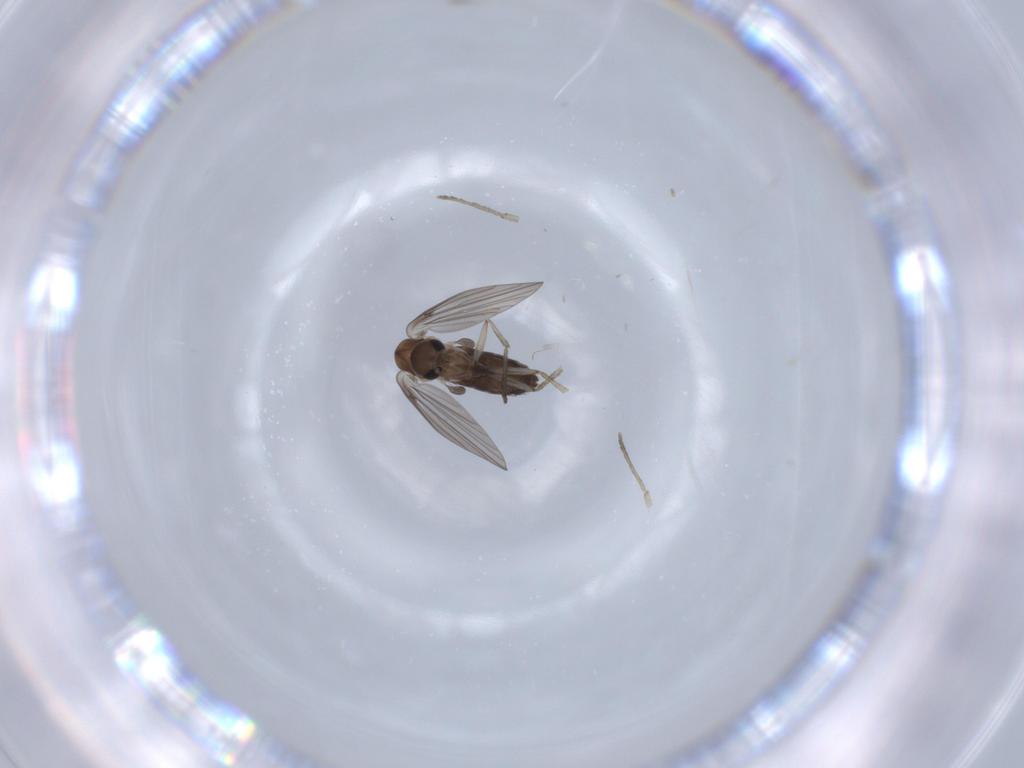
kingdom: Animalia
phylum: Arthropoda
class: Insecta
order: Diptera
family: Psychodidae
